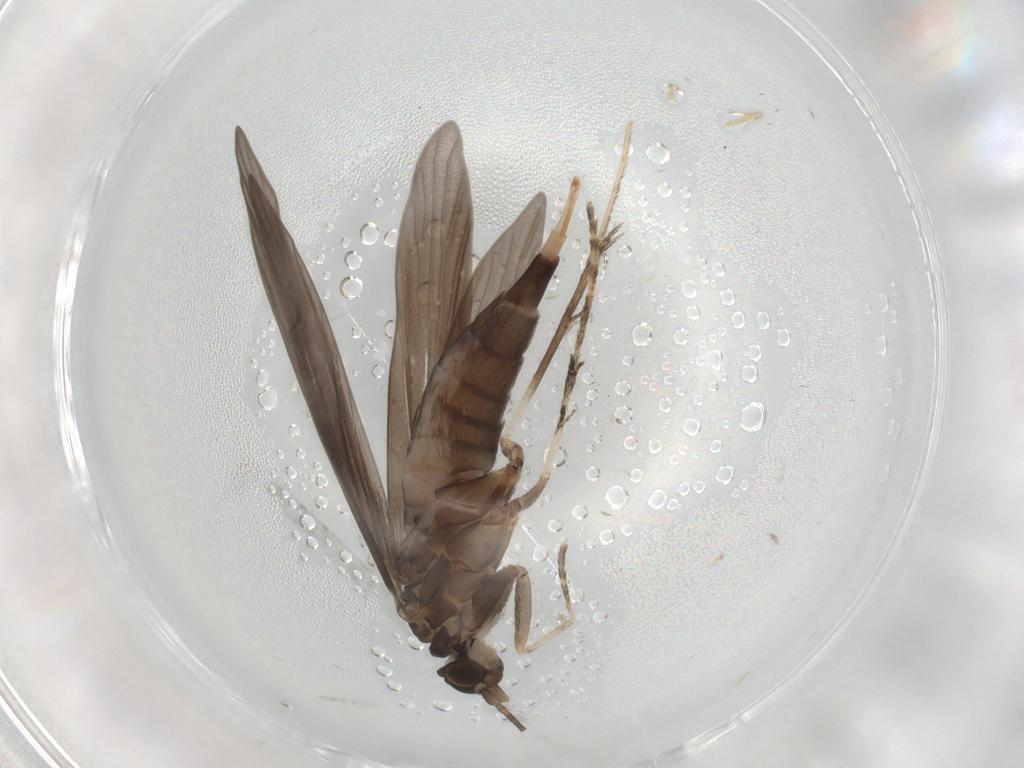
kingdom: Animalia
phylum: Arthropoda
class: Insecta
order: Trichoptera
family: Xiphocentronidae
